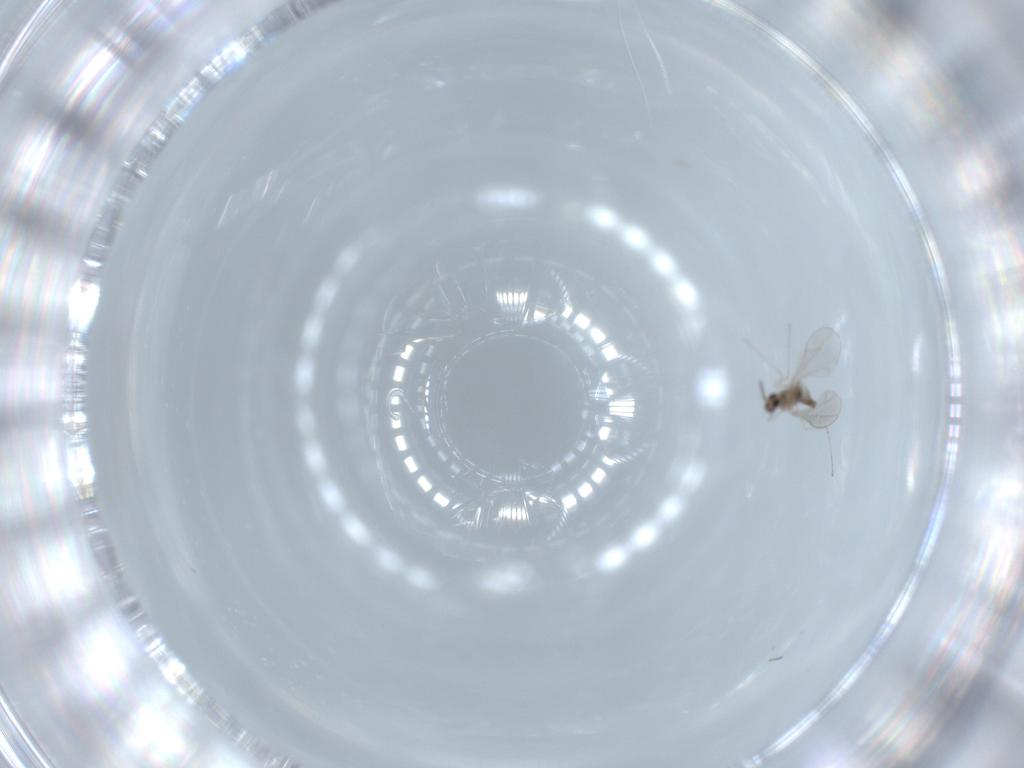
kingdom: Animalia
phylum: Arthropoda
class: Insecta
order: Diptera
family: Cecidomyiidae
